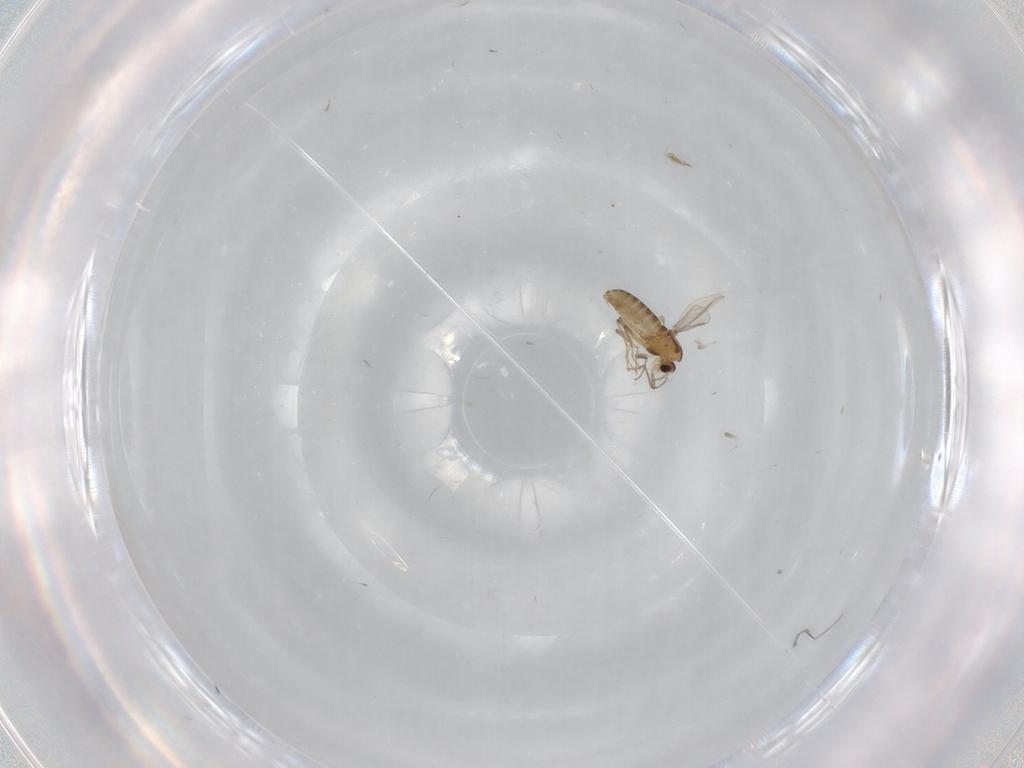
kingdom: Animalia
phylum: Arthropoda
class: Insecta
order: Diptera
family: Chironomidae
